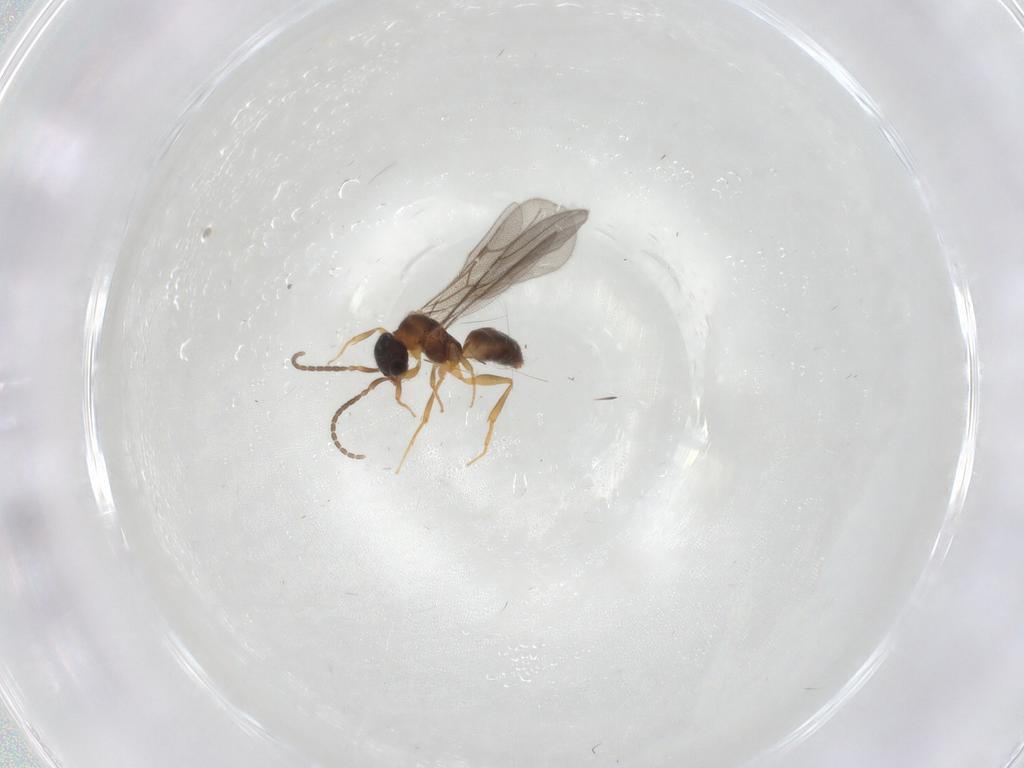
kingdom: Animalia
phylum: Arthropoda
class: Insecta
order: Hymenoptera
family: Bethylidae
